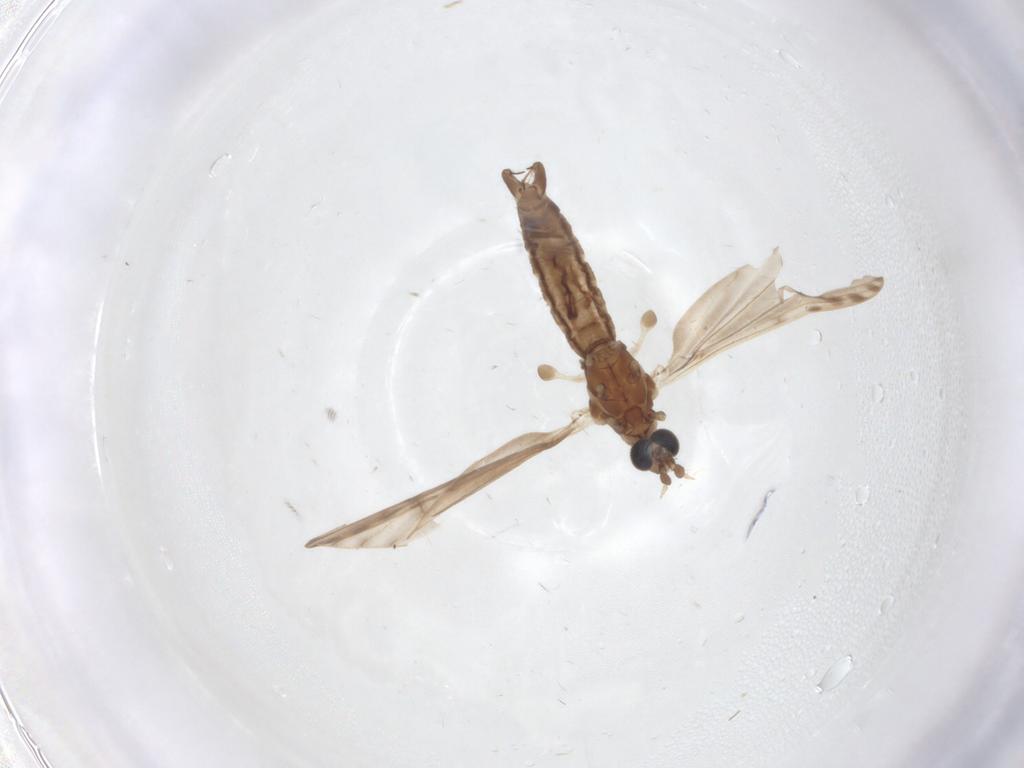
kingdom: Animalia
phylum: Arthropoda
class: Insecta
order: Diptera
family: Limoniidae
